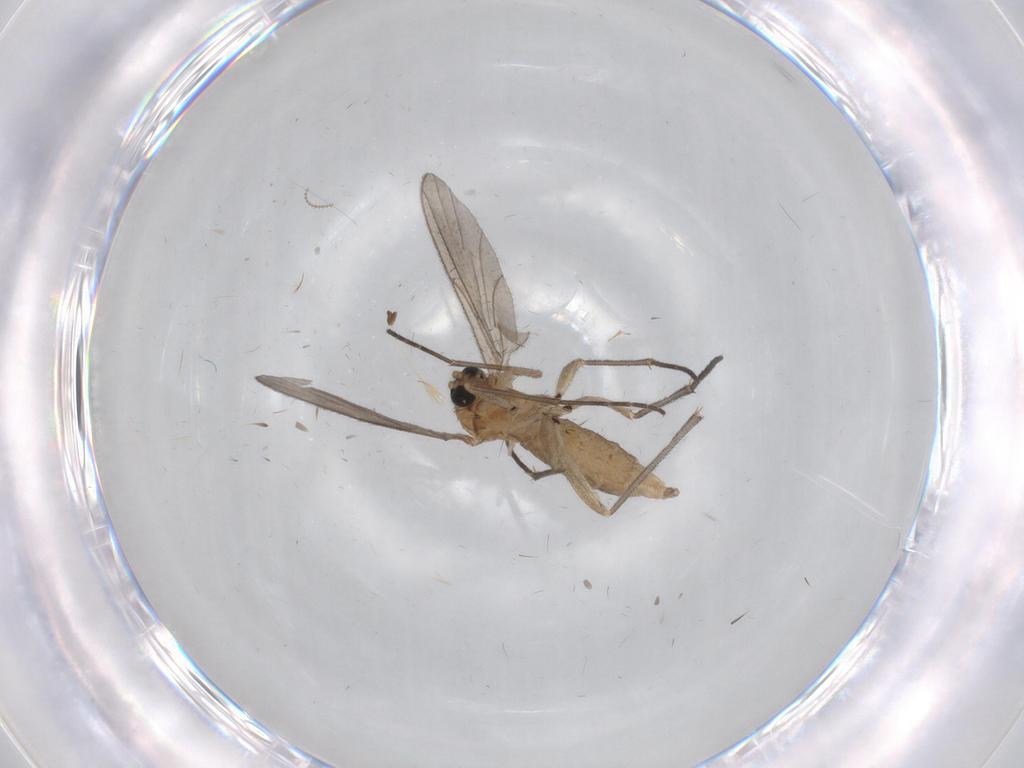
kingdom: Animalia
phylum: Arthropoda
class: Insecta
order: Diptera
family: Sciaridae
